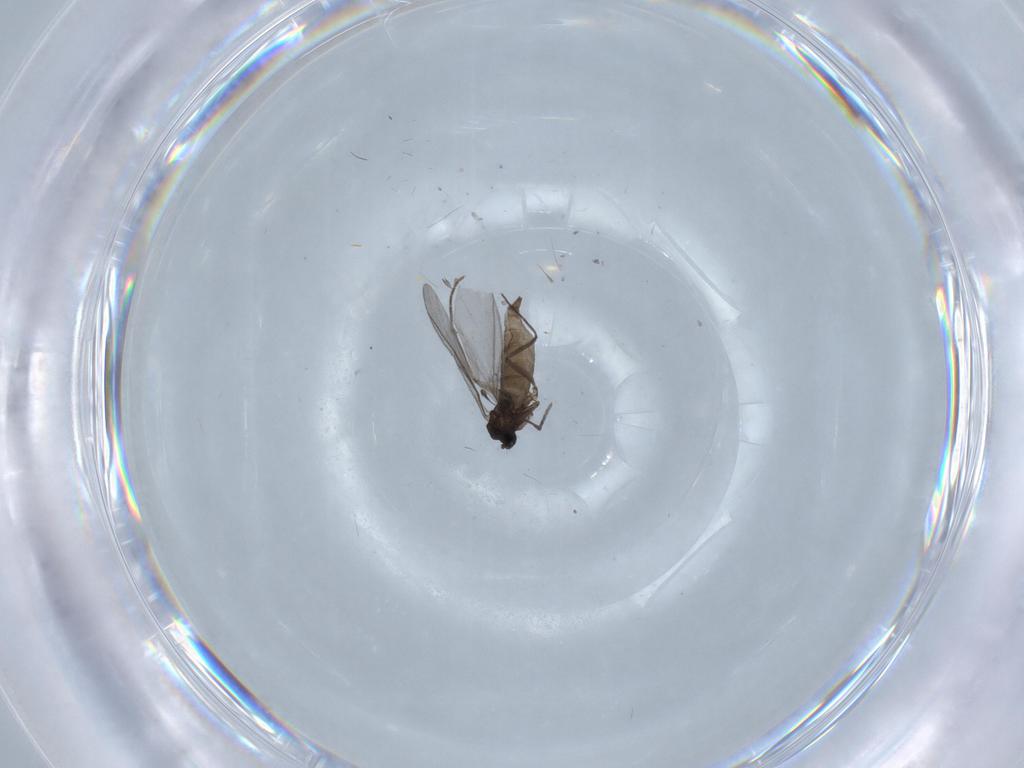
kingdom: Animalia
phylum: Arthropoda
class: Insecta
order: Diptera
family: Sciaridae
